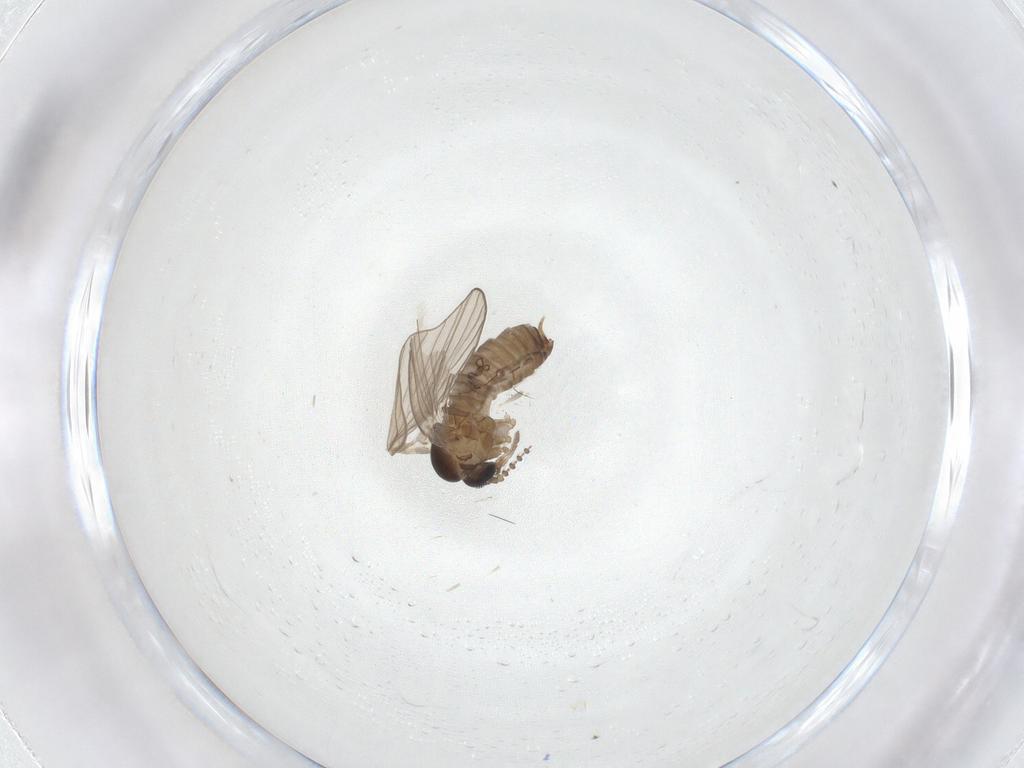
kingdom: Animalia
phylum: Arthropoda
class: Insecta
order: Diptera
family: Psychodidae
